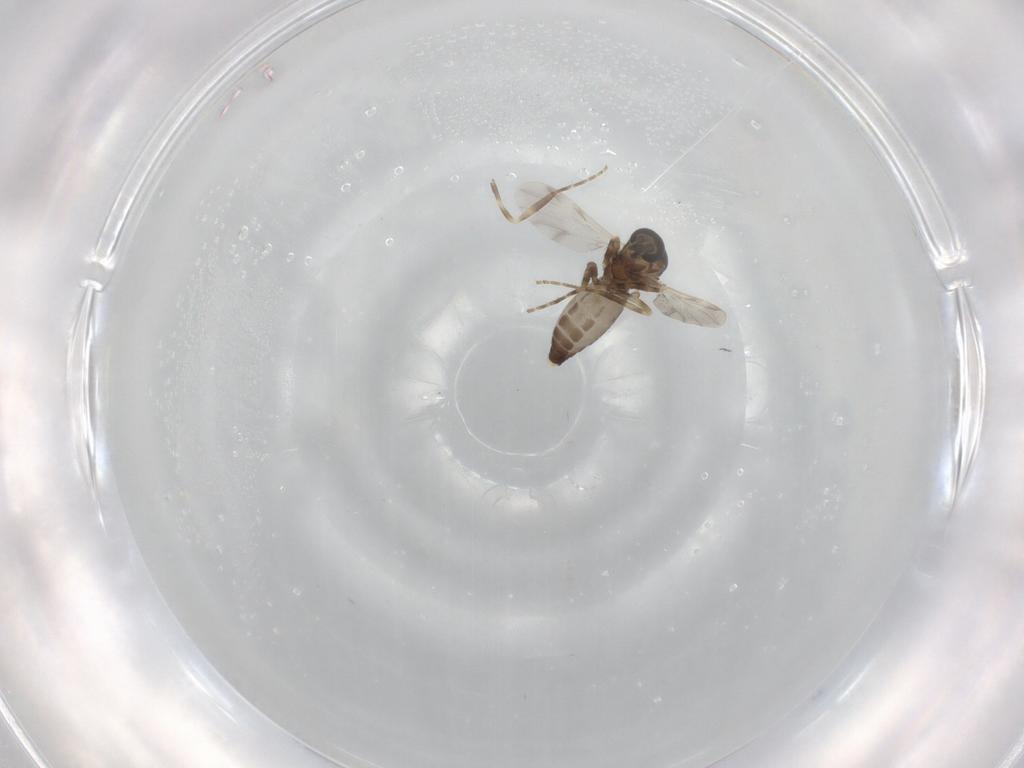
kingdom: Animalia
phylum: Arthropoda
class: Insecta
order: Diptera
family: Ceratopogonidae
